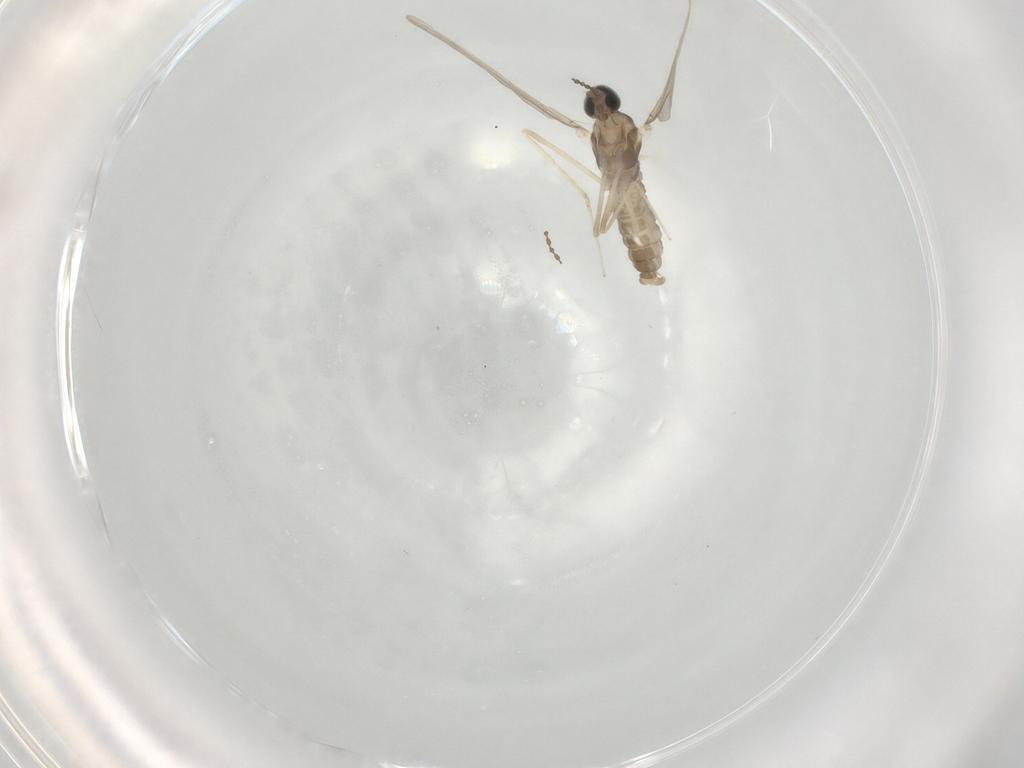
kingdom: Animalia
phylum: Arthropoda
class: Insecta
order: Diptera
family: Cecidomyiidae
